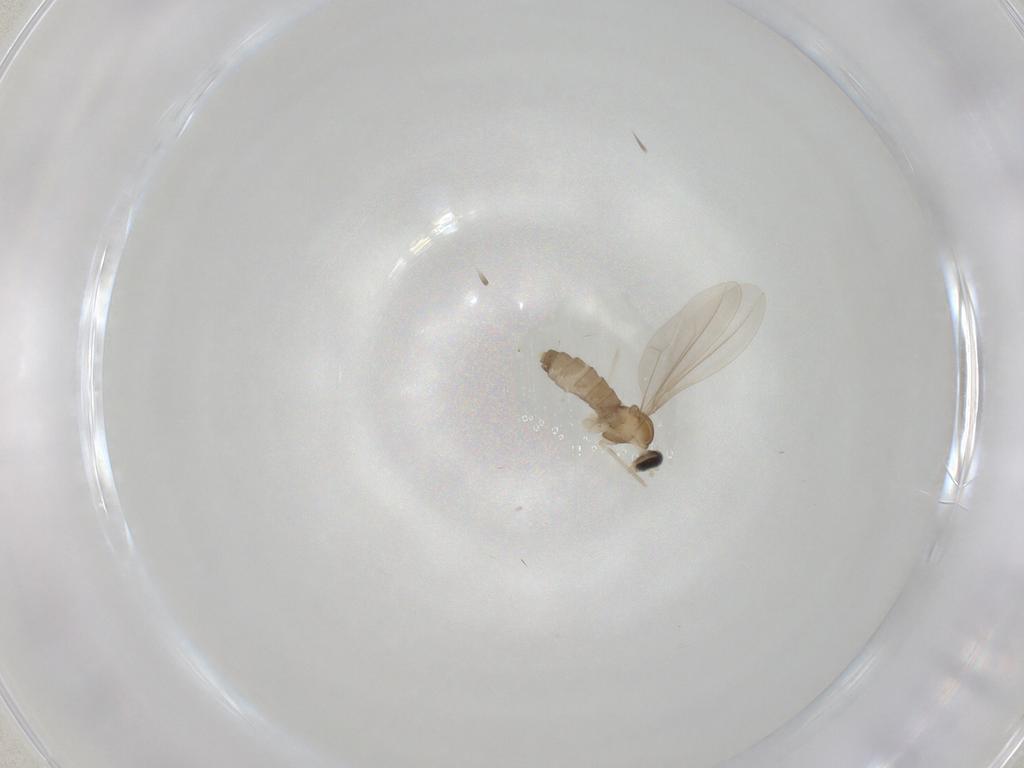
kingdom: Animalia
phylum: Arthropoda
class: Insecta
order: Diptera
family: Cecidomyiidae
